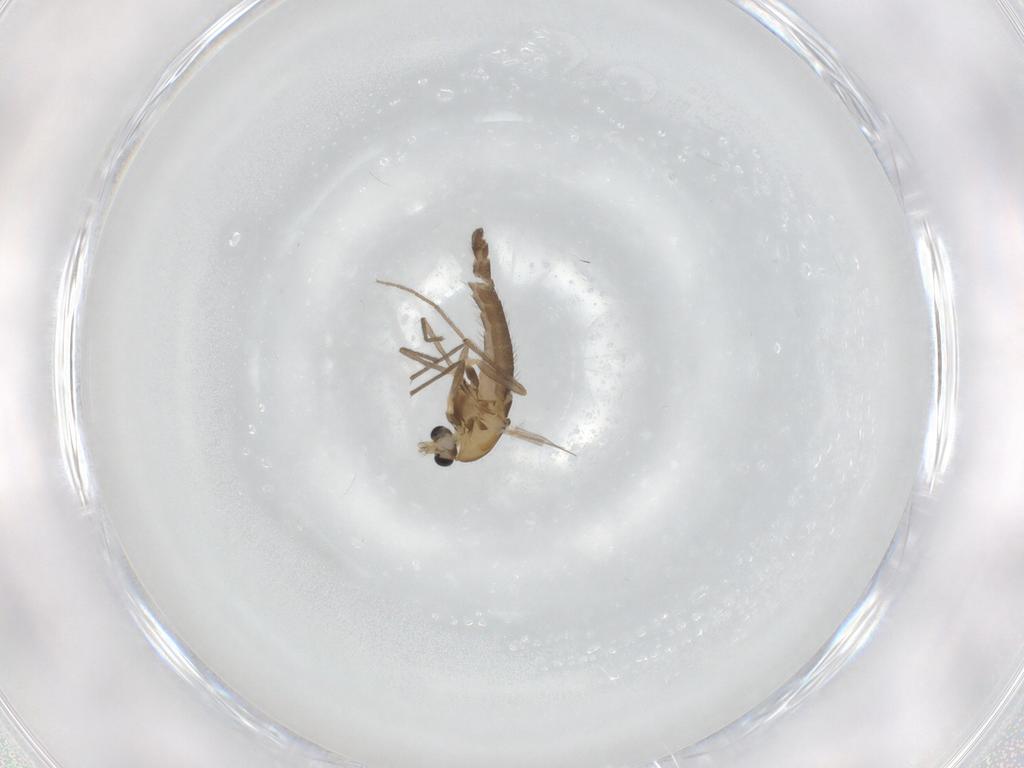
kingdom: Animalia
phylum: Arthropoda
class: Insecta
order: Diptera
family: Chironomidae
